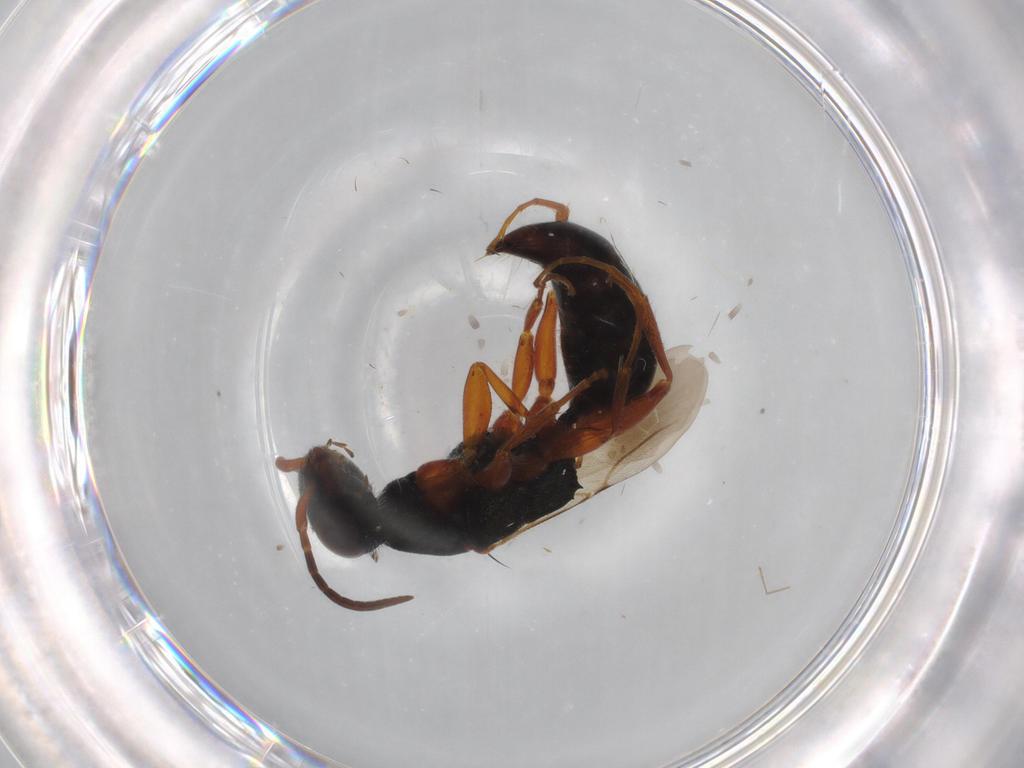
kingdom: Animalia
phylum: Arthropoda
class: Insecta
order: Hymenoptera
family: Bethylidae
